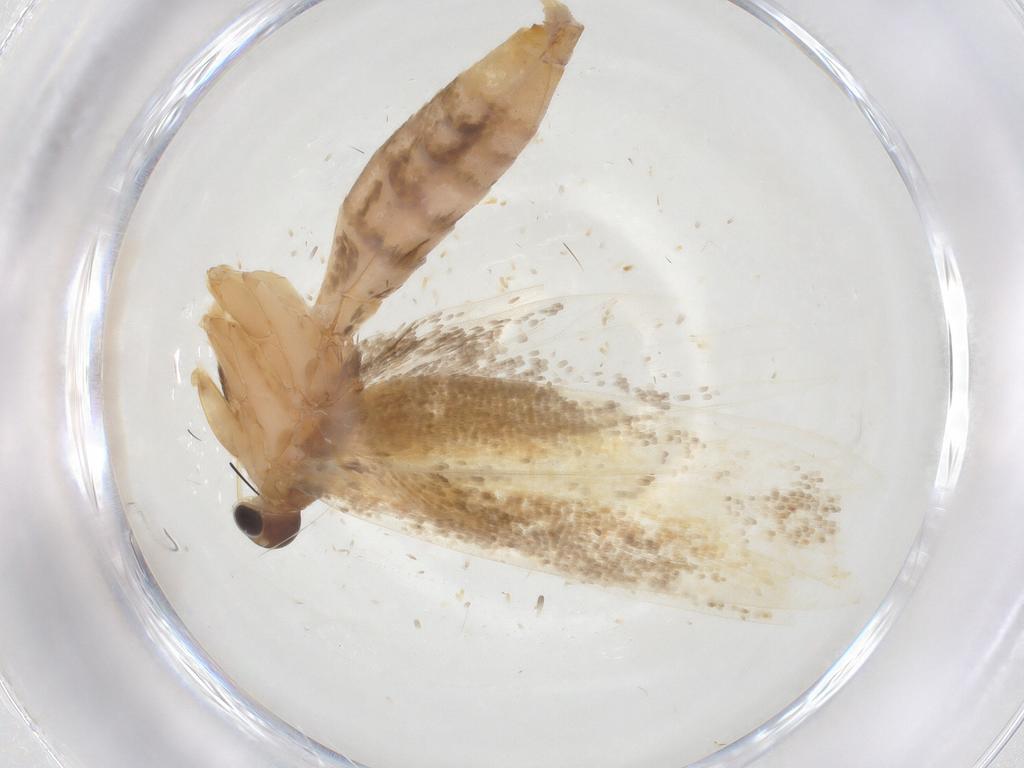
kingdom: Animalia
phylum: Arthropoda
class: Insecta
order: Lepidoptera
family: Oecophoridae
